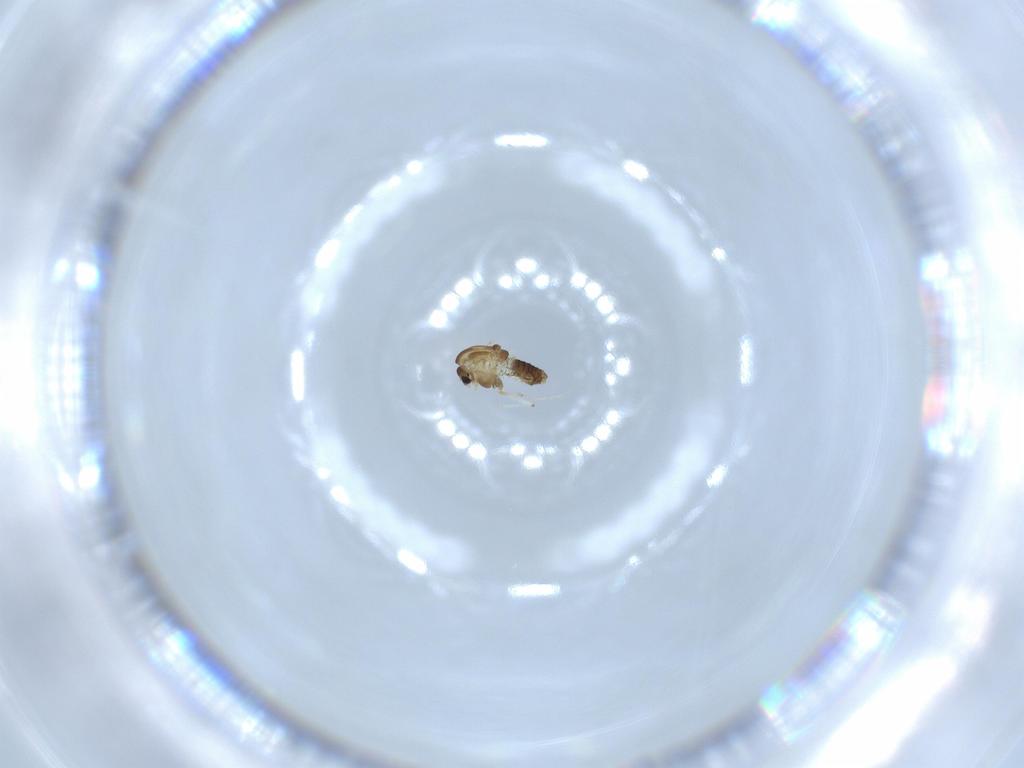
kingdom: Animalia
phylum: Arthropoda
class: Insecta
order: Diptera
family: Chironomidae
